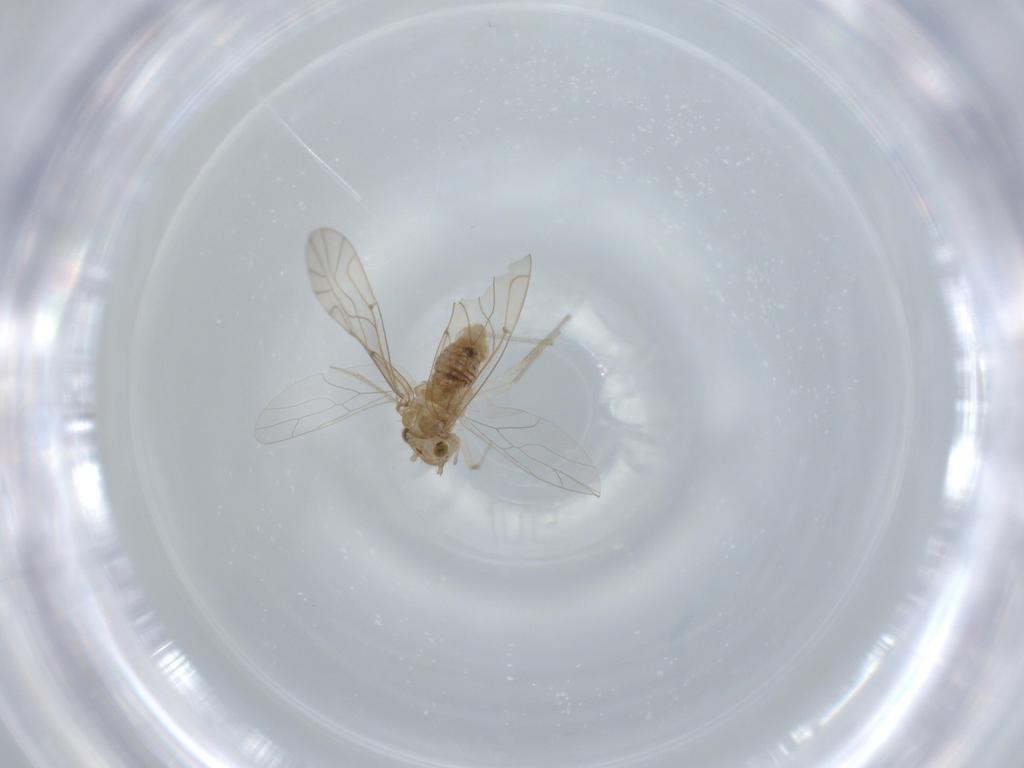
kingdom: Animalia
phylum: Arthropoda
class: Insecta
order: Psocodea
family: Lachesillidae
